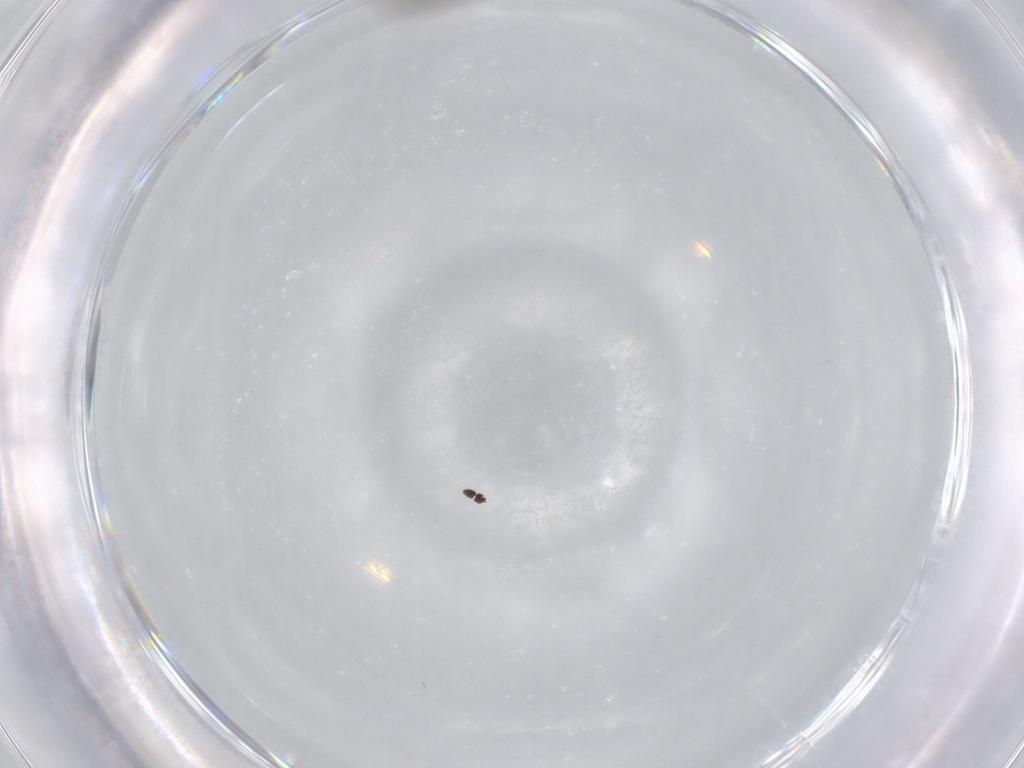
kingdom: Animalia
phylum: Arthropoda
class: Insecta
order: Hymenoptera
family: Diapriidae
